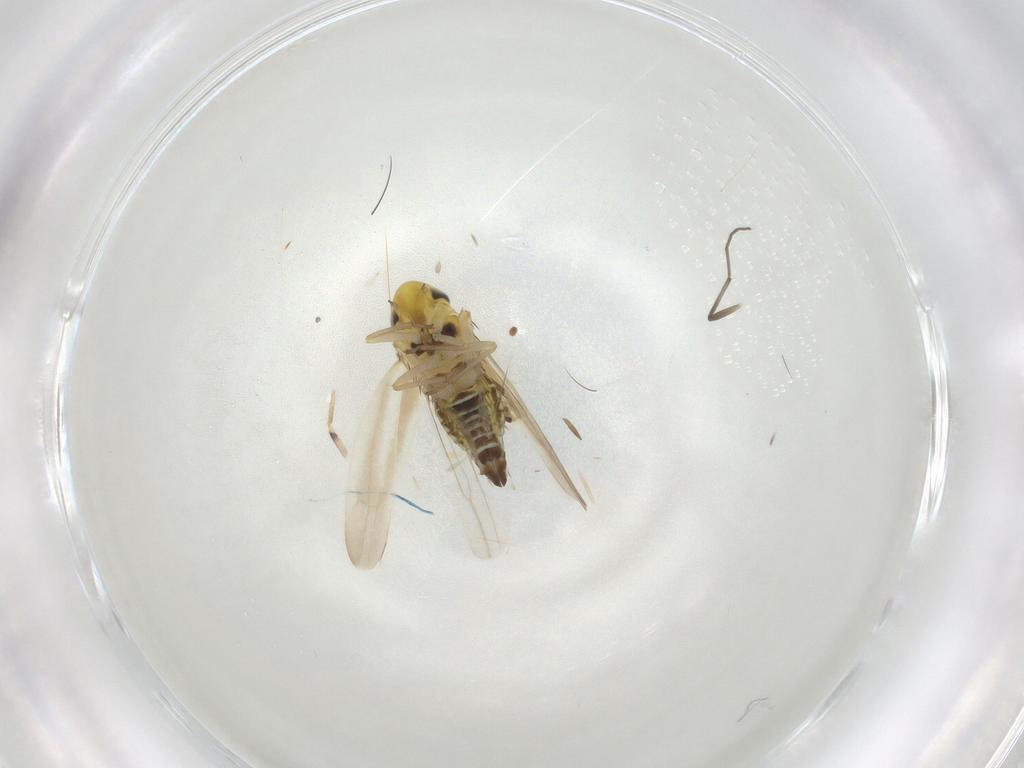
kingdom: Animalia
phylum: Arthropoda
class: Insecta
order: Hemiptera
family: Cicadellidae
